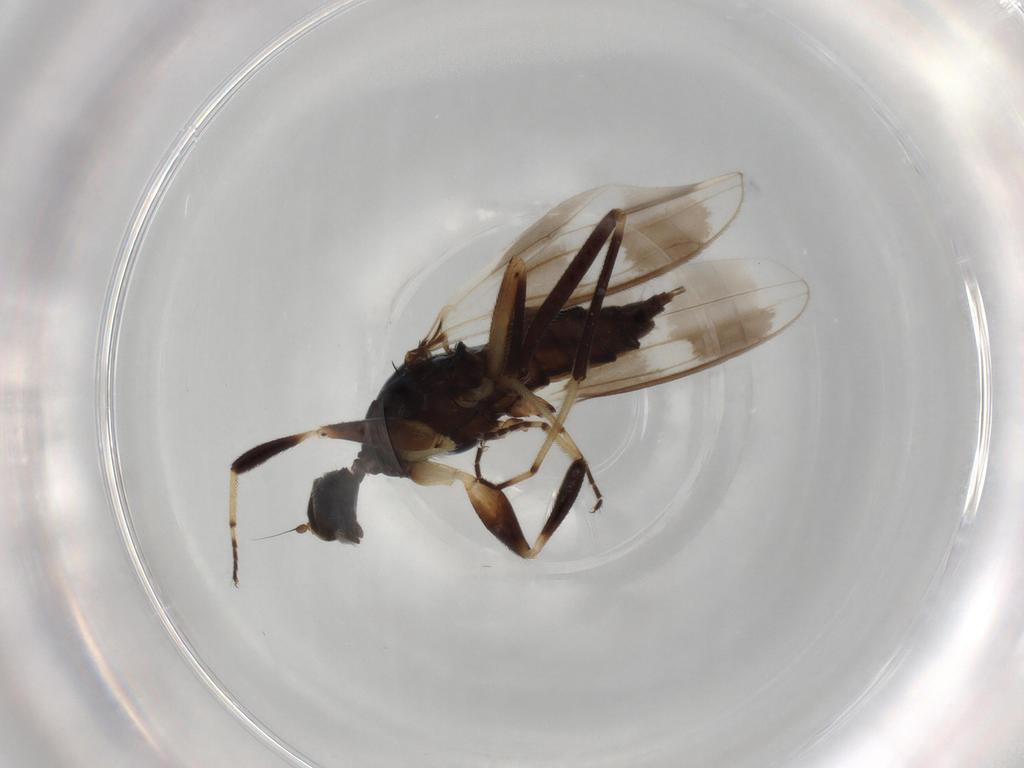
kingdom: Animalia
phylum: Arthropoda
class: Insecta
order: Diptera
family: Hybotidae
